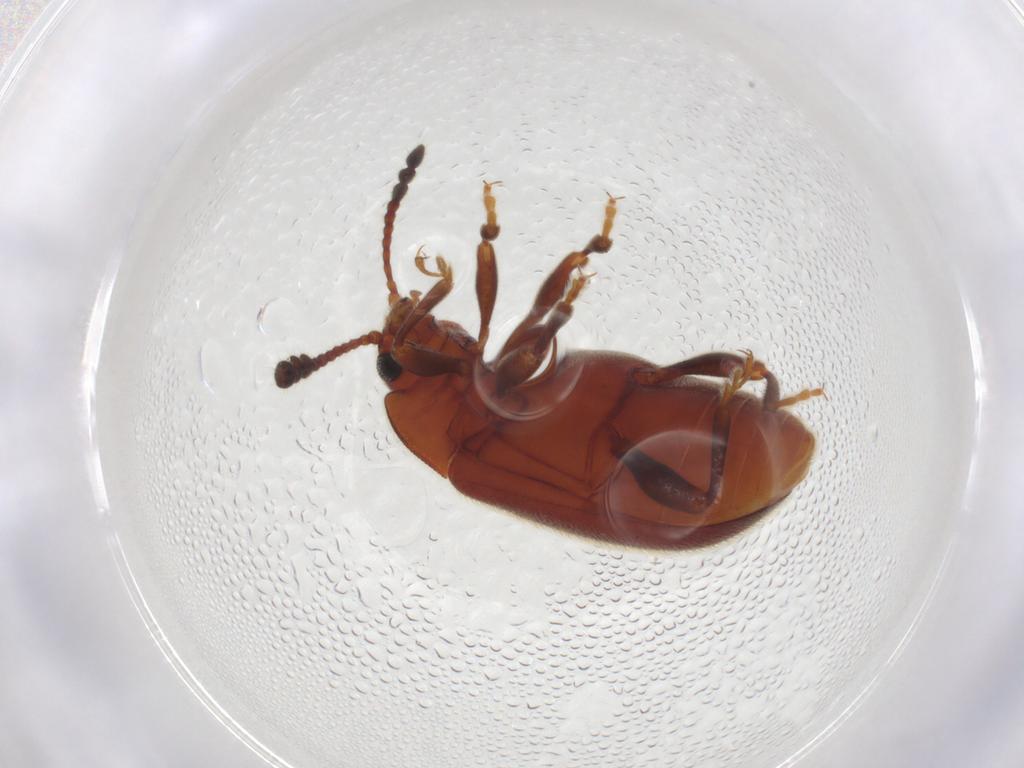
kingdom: Animalia
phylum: Arthropoda
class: Insecta
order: Coleoptera
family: Endomychidae
